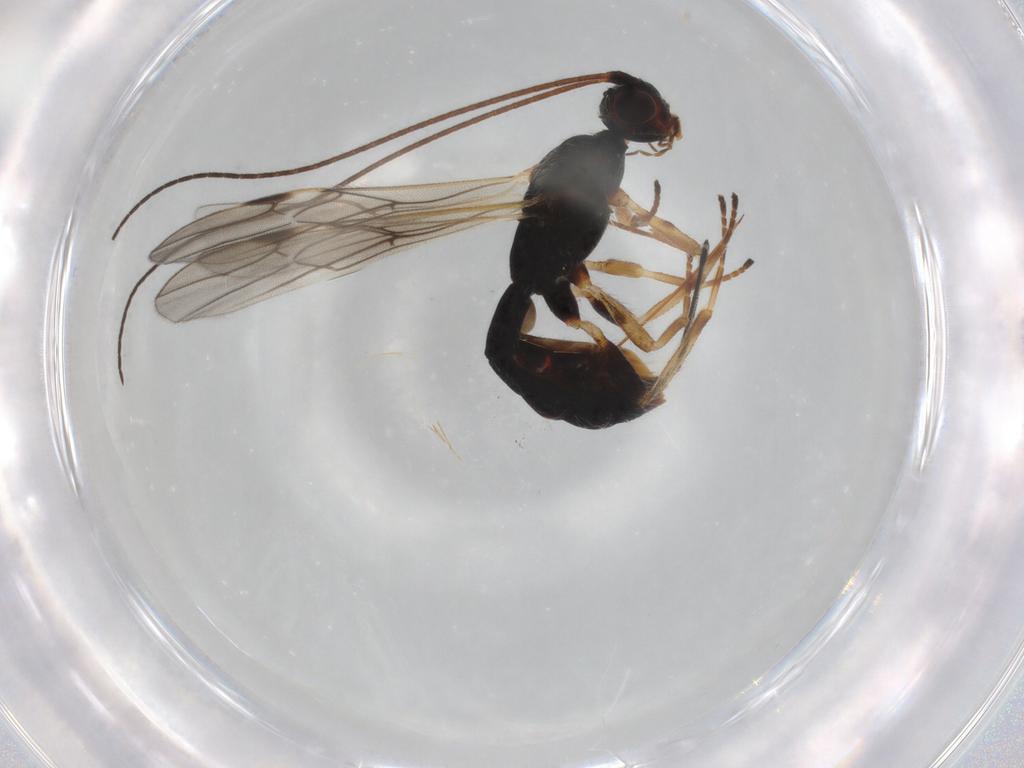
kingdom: Animalia
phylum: Arthropoda
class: Insecta
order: Hymenoptera
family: Braconidae
